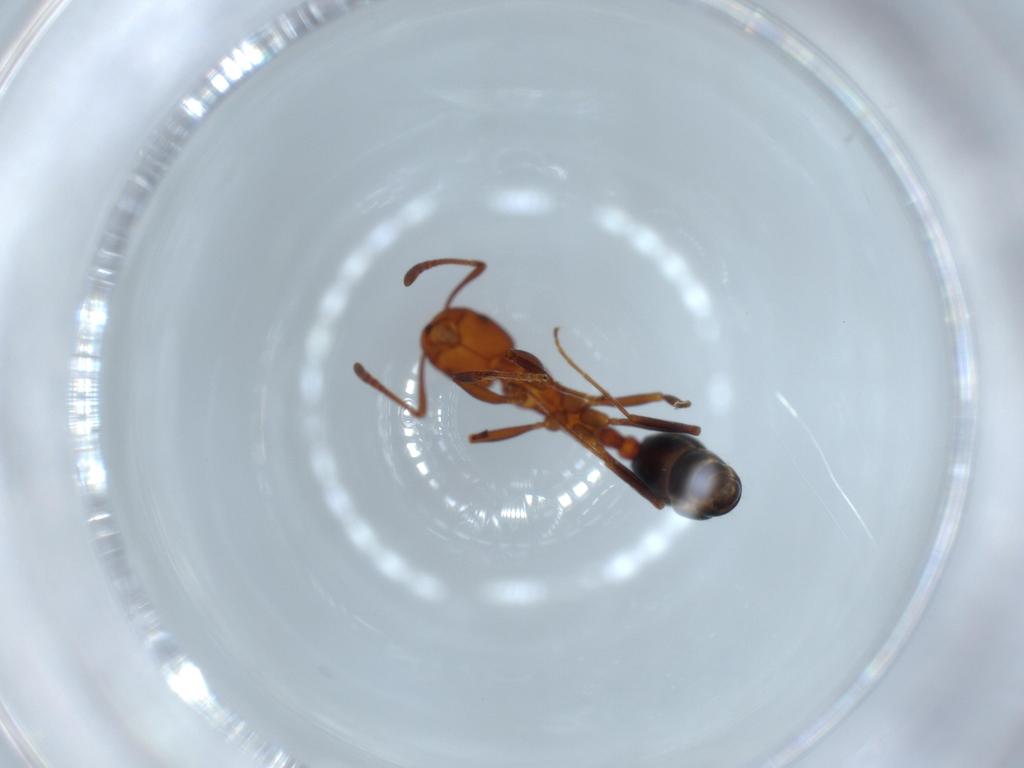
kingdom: Animalia
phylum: Arthropoda
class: Insecta
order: Hymenoptera
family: Formicidae
